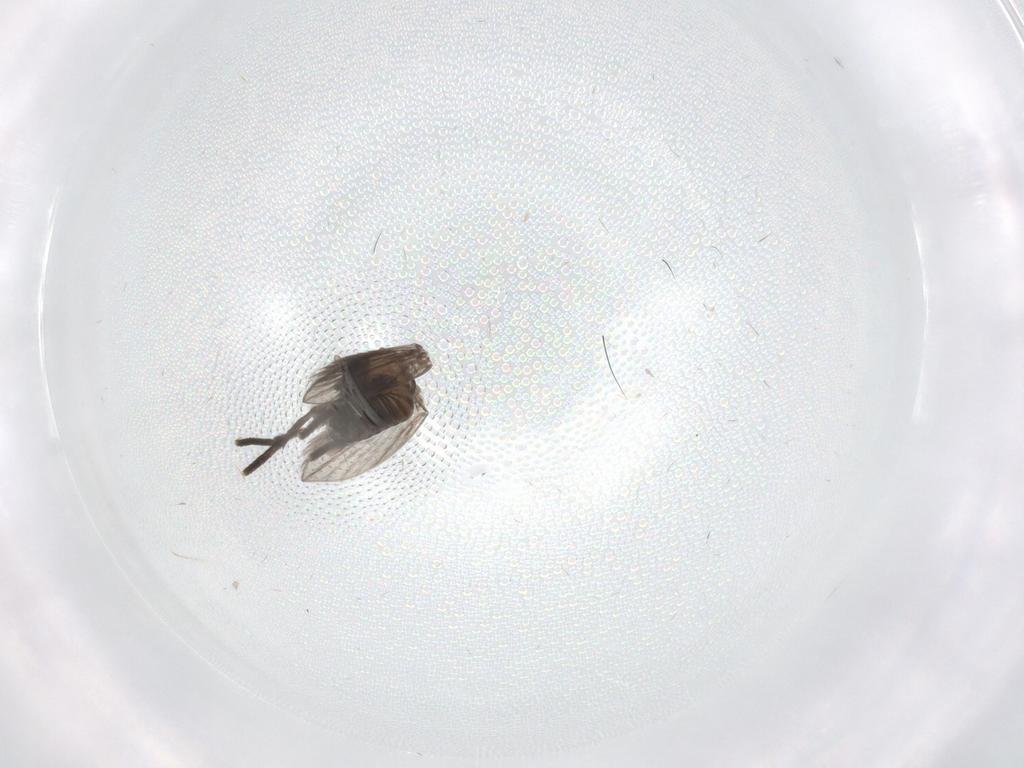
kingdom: Animalia
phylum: Arthropoda
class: Insecta
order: Diptera
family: Psychodidae
